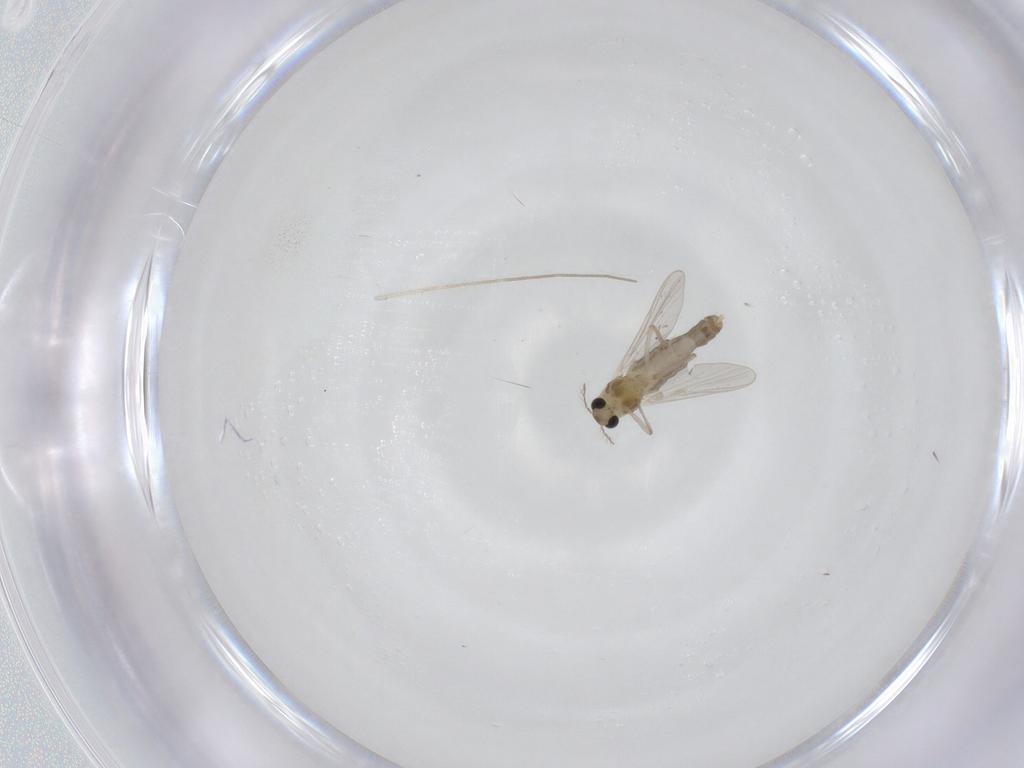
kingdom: Animalia
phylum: Arthropoda
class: Insecta
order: Diptera
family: Chironomidae
